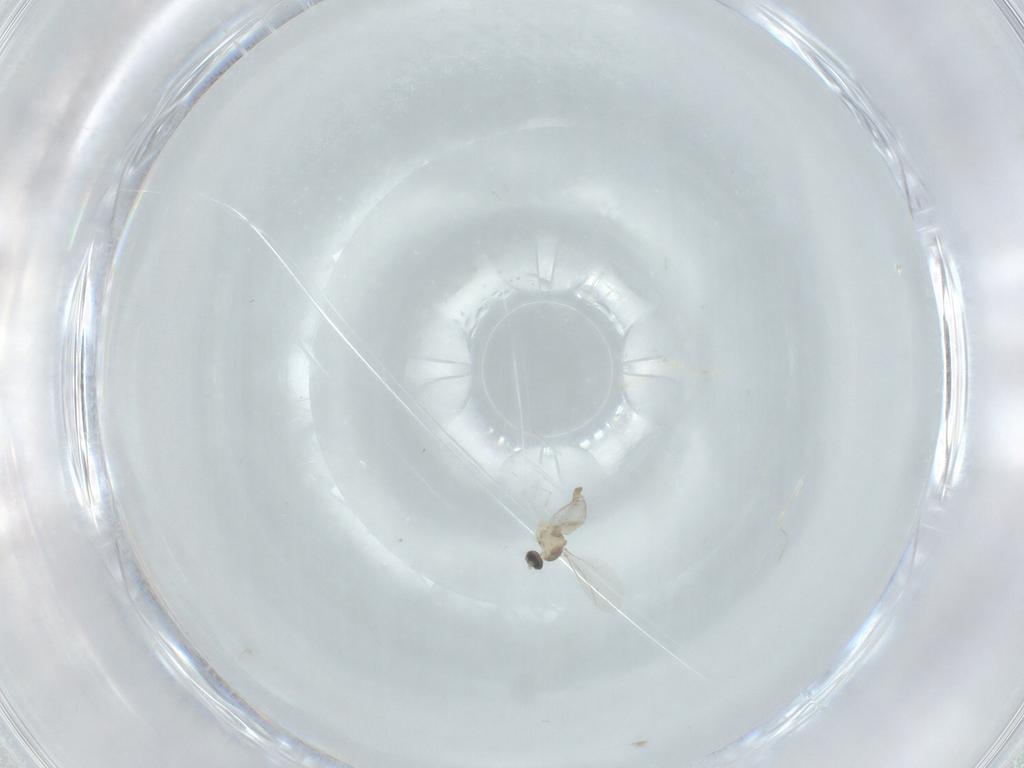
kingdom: Animalia
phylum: Arthropoda
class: Insecta
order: Diptera
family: Cecidomyiidae
